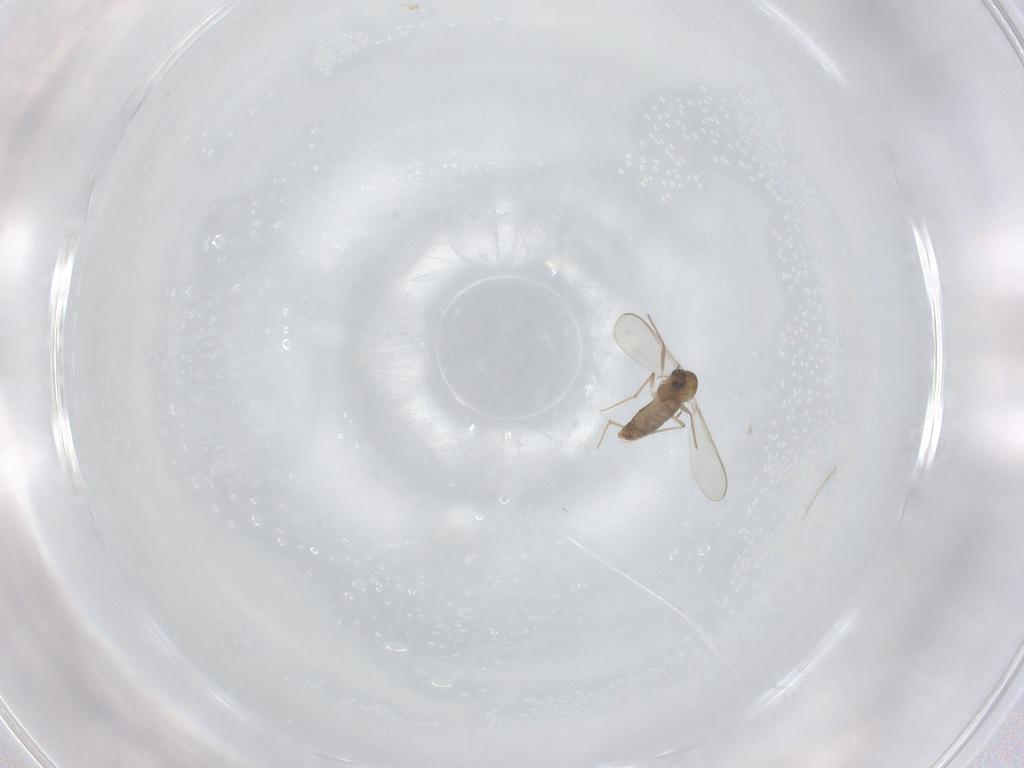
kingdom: Animalia
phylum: Arthropoda
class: Insecta
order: Diptera
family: Chironomidae
